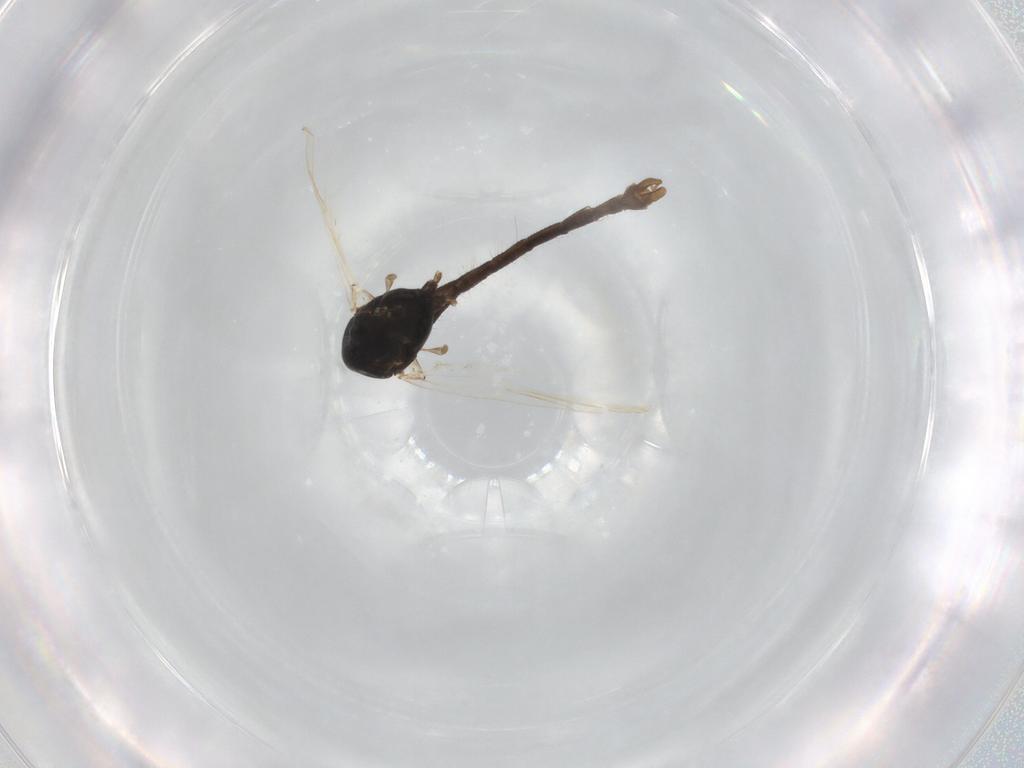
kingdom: Animalia
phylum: Arthropoda
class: Insecta
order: Diptera
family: Chironomidae
